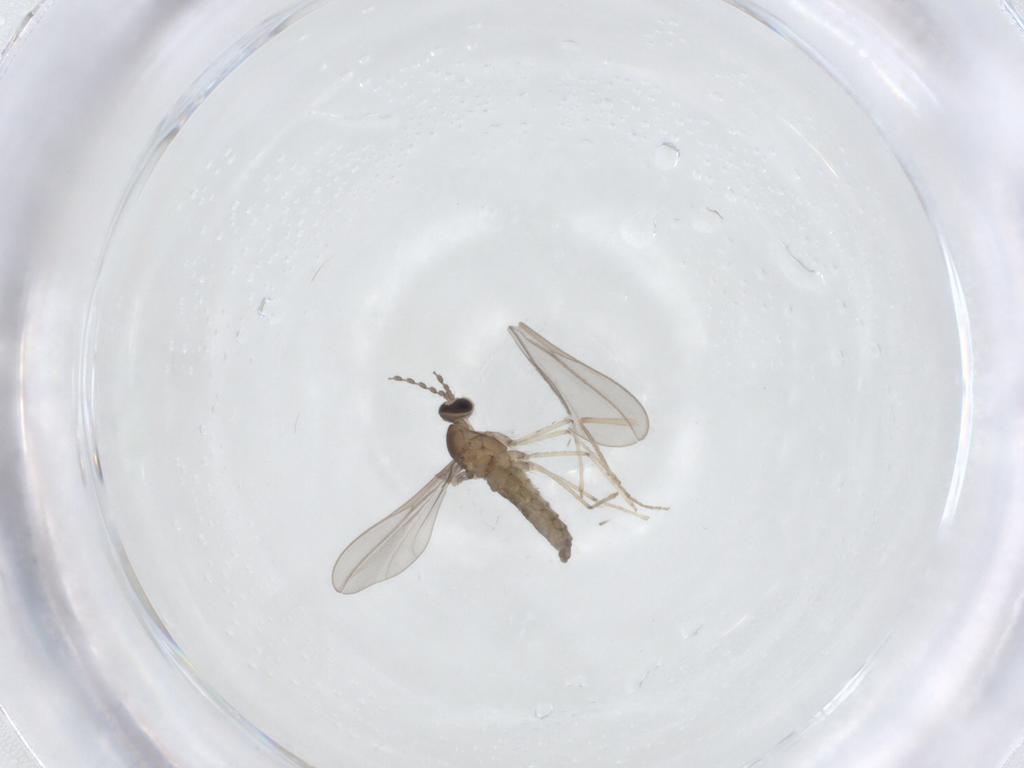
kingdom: Animalia
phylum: Arthropoda
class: Insecta
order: Diptera
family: Chironomidae
